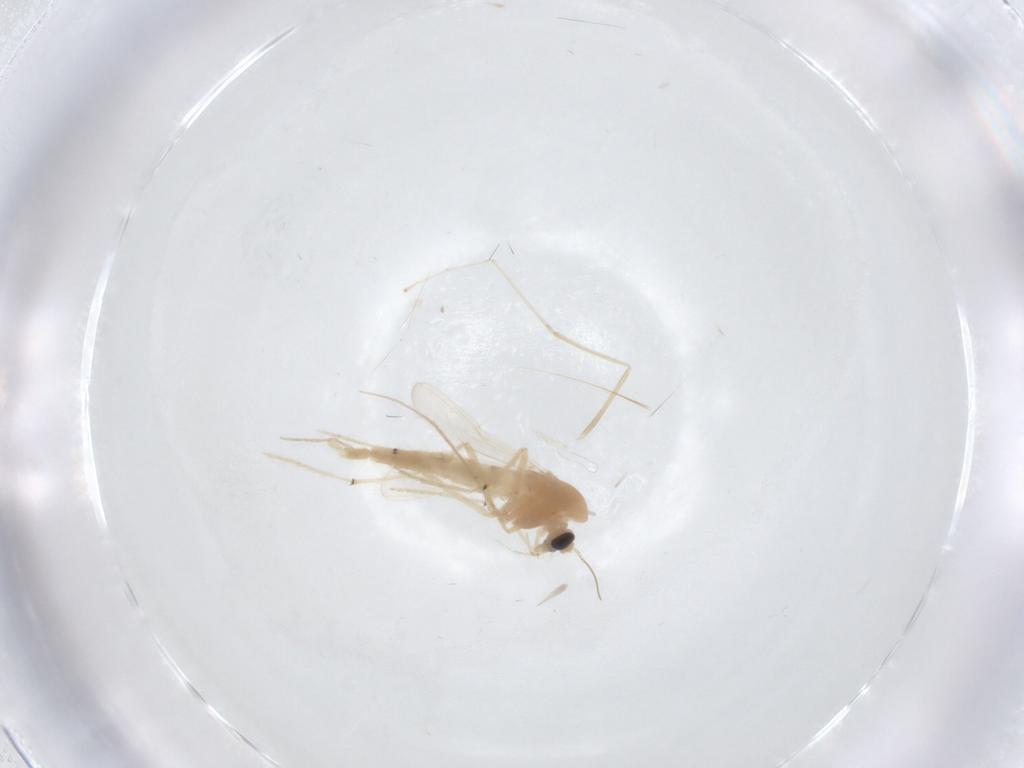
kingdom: Animalia
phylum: Arthropoda
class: Insecta
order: Diptera
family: Chironomidae
